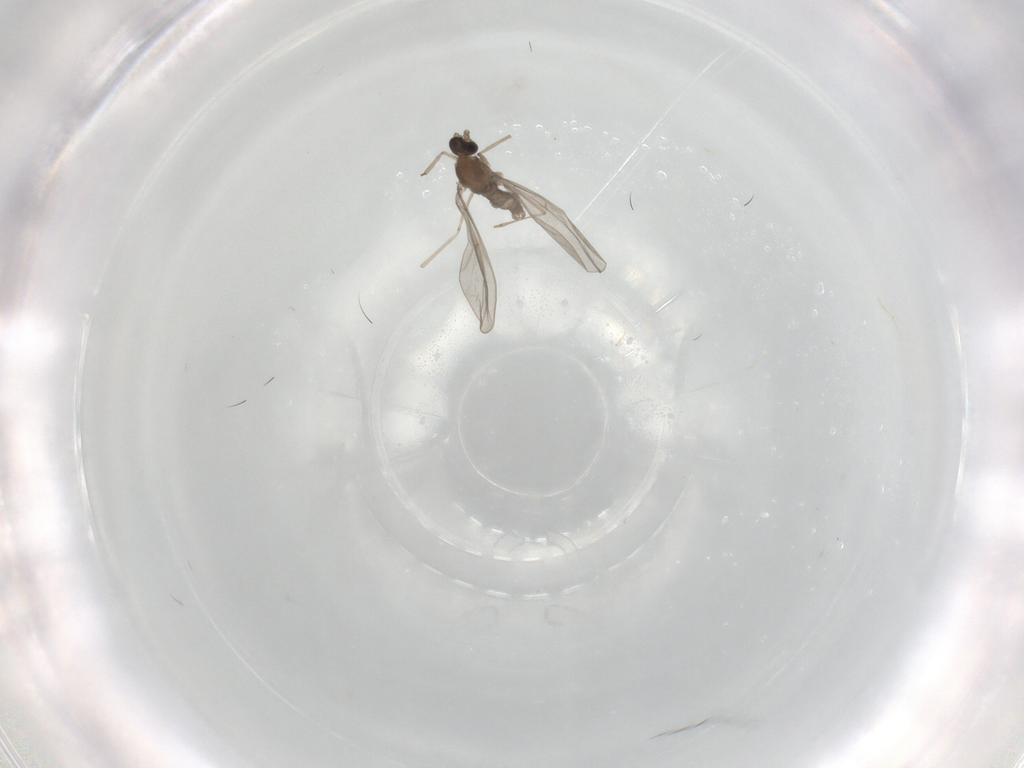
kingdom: Animalia
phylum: Arthropoda
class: Insecta
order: Diptera
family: Cecidomyiidae
